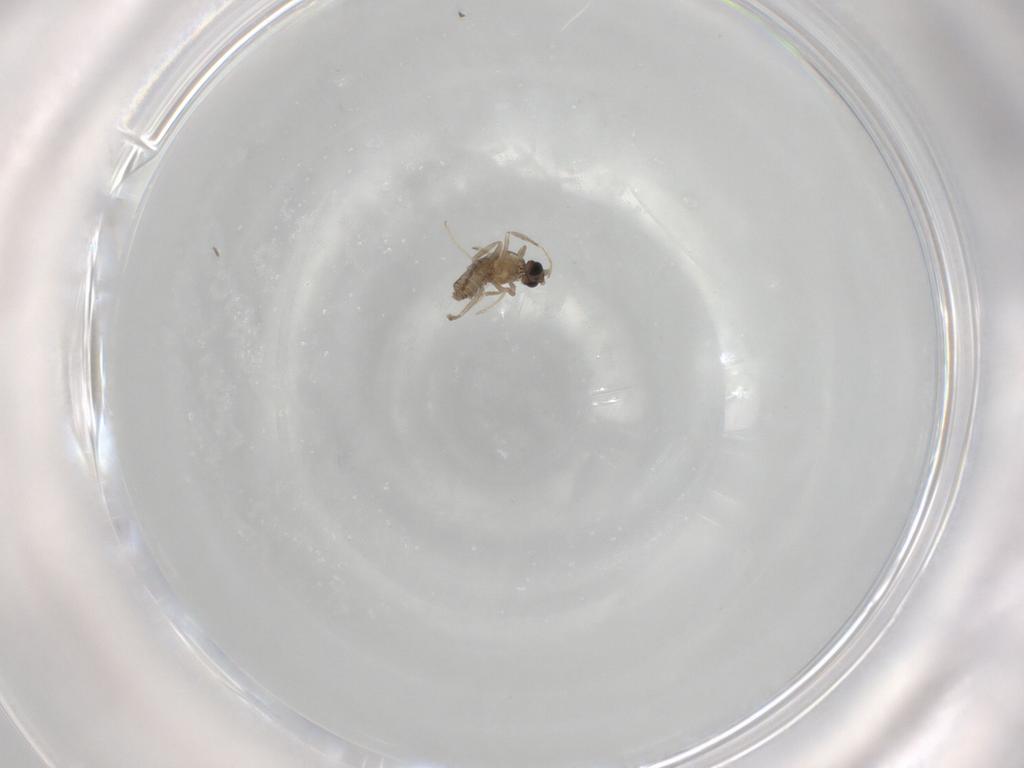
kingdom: Animalia
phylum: Arthropoda
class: Insecta
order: Diptera
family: Cecidomyiidae
